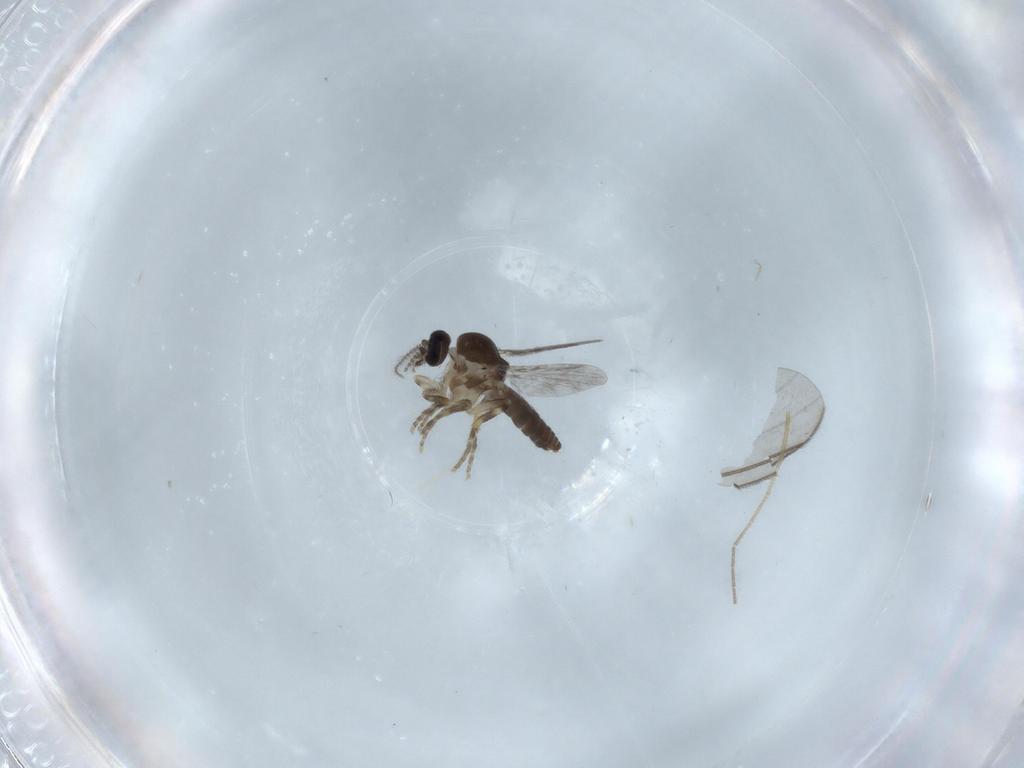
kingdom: Animalia
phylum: Arthropoda
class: Insecta
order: Diptera
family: Ceratopogonidae
